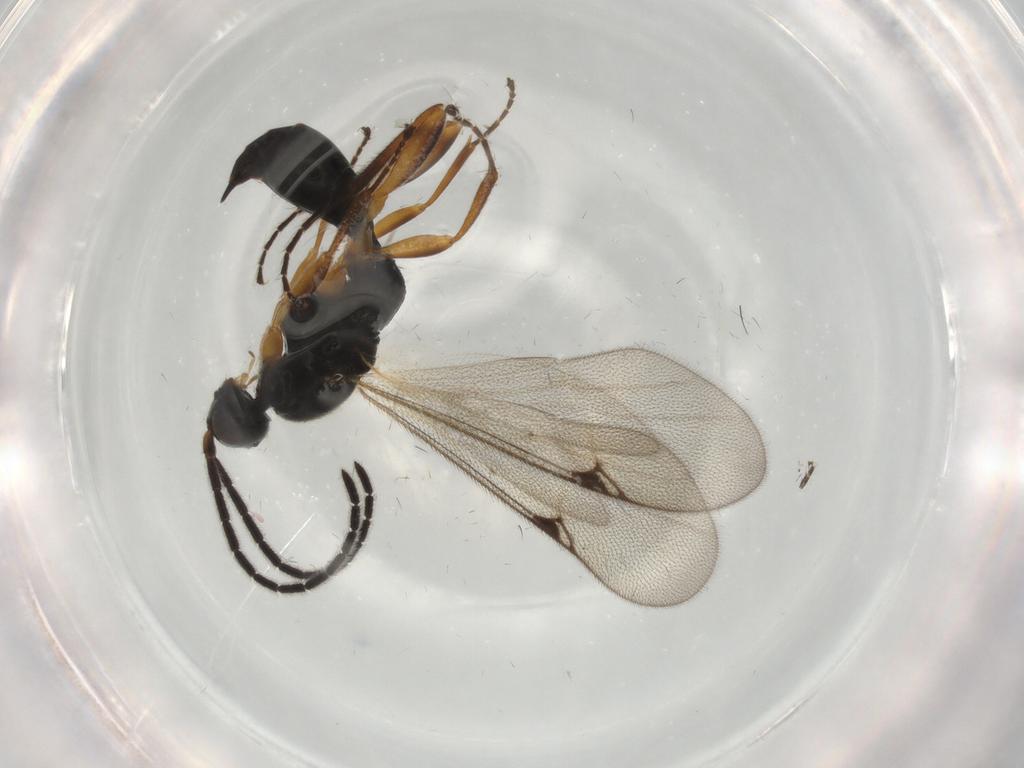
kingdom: Animalia
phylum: Arthropoda
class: Insecta
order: Hymenoptera
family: Proctotrupidae
